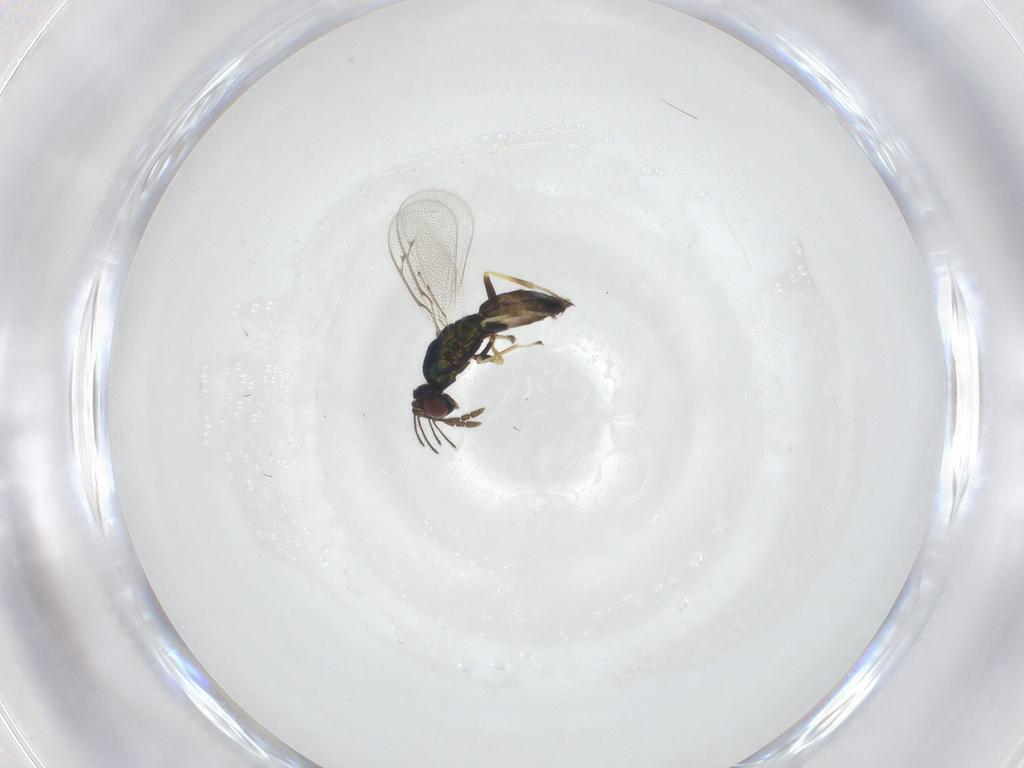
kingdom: Animalia
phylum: Arthropoda
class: Insecta
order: Hymenoptera
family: Eulophidae
